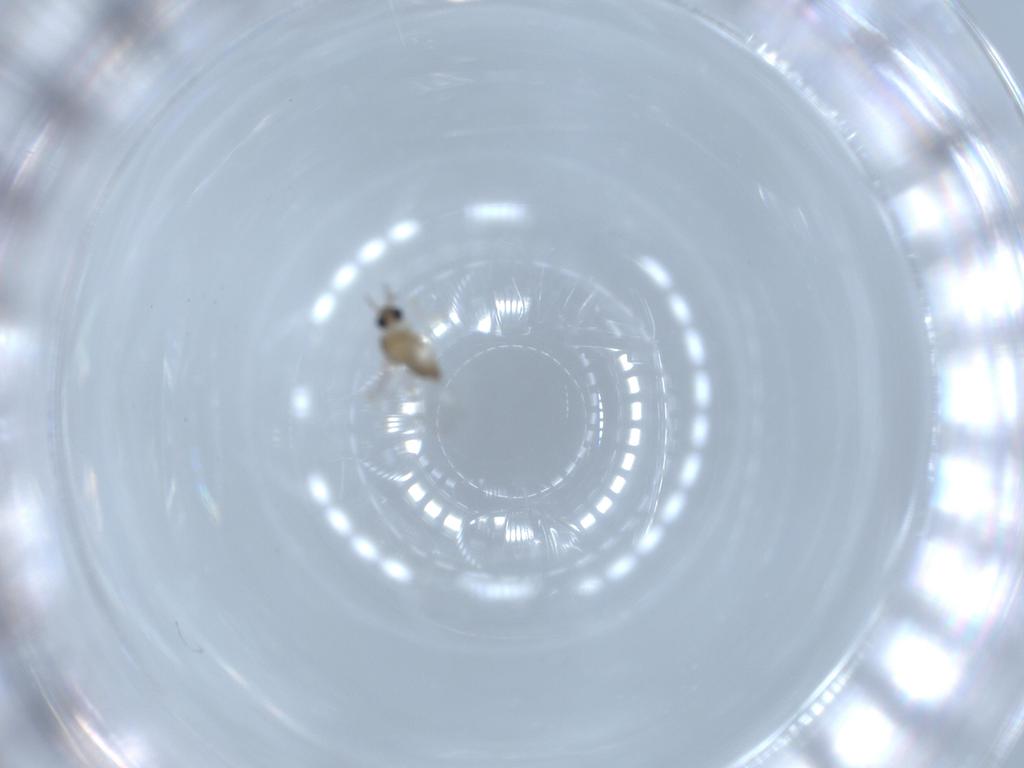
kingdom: Animalia
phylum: Arthropoda
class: Insecta
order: Diptera
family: Cecidomyiidae
